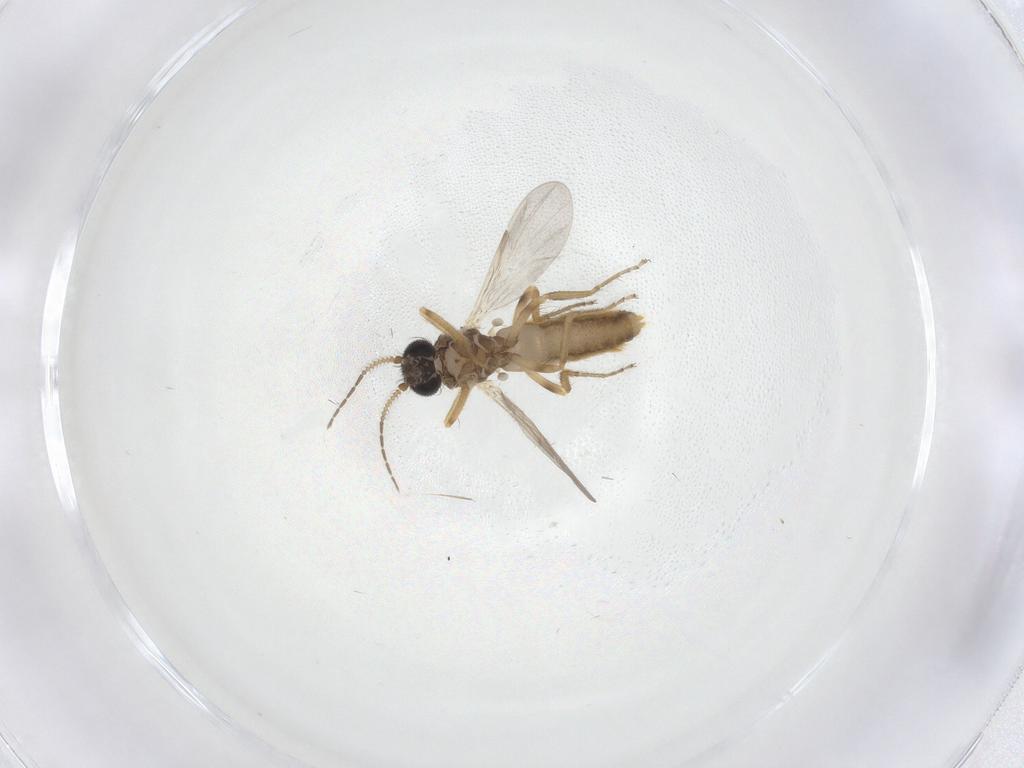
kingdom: Animalia
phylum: Arthropoda
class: Insecta
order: Diptera
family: Ceratopogonidae
